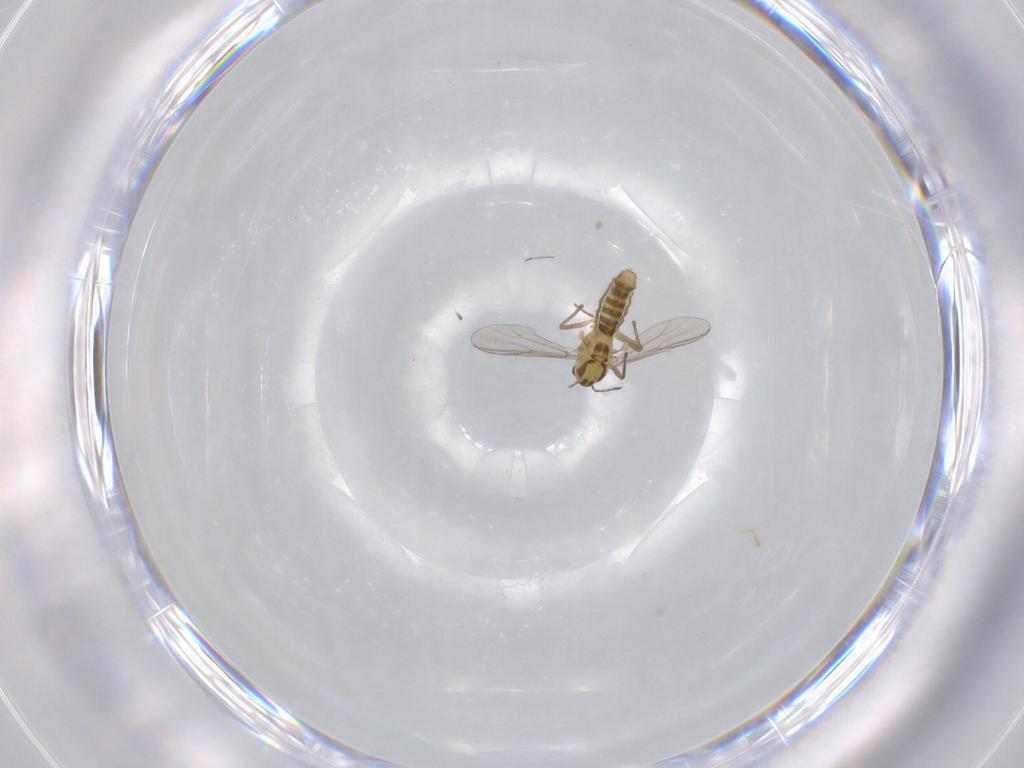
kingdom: Animalia
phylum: Arthropoda
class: Insecta
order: Diptera
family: Chironomidae
